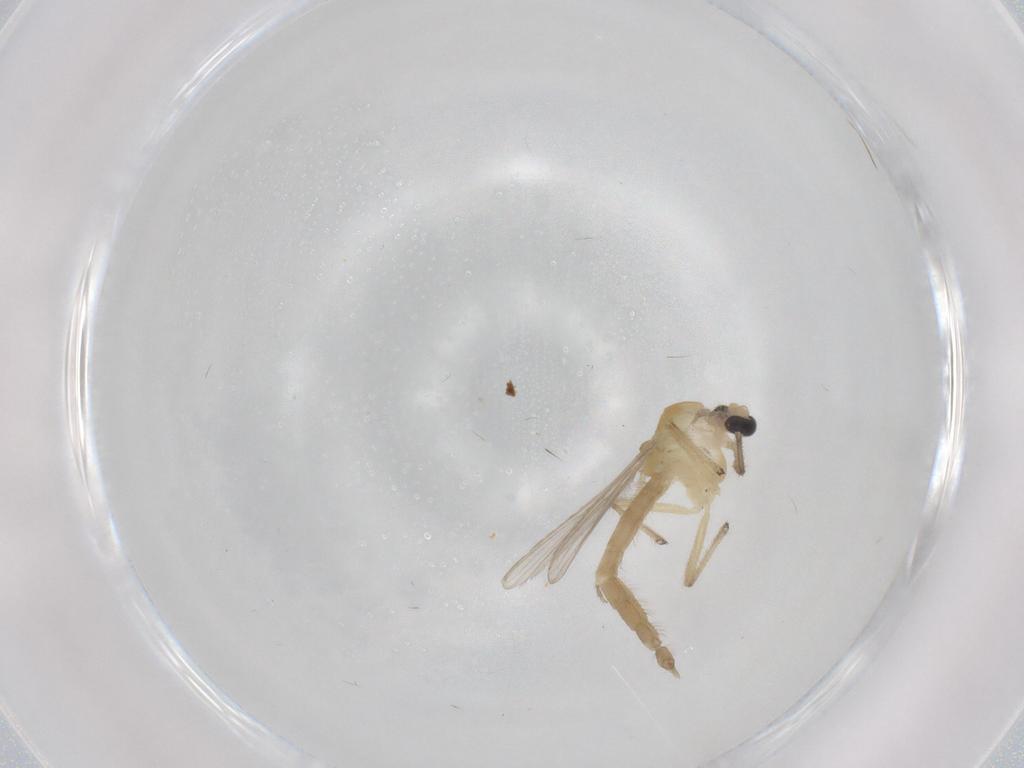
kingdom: Animalia
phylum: Arthropoda
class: Insecta
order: Diptera
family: Chironomidae
